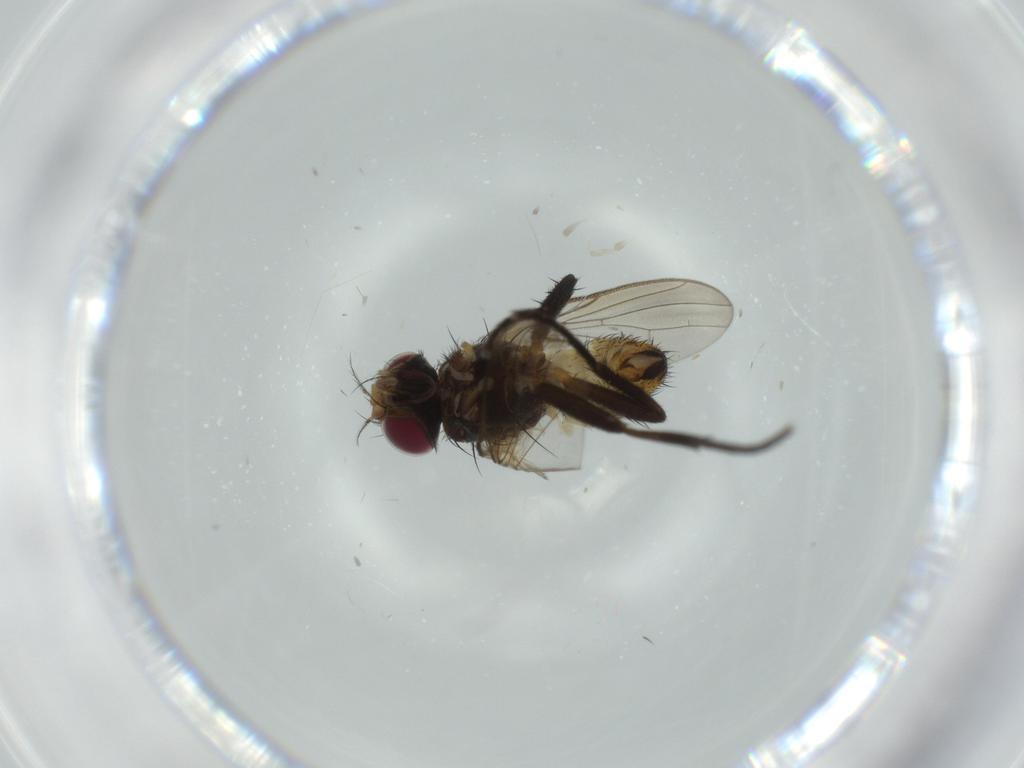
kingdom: Animalia
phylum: Arthropoda
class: Insecta
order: Diptera
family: Anthomyiidae
